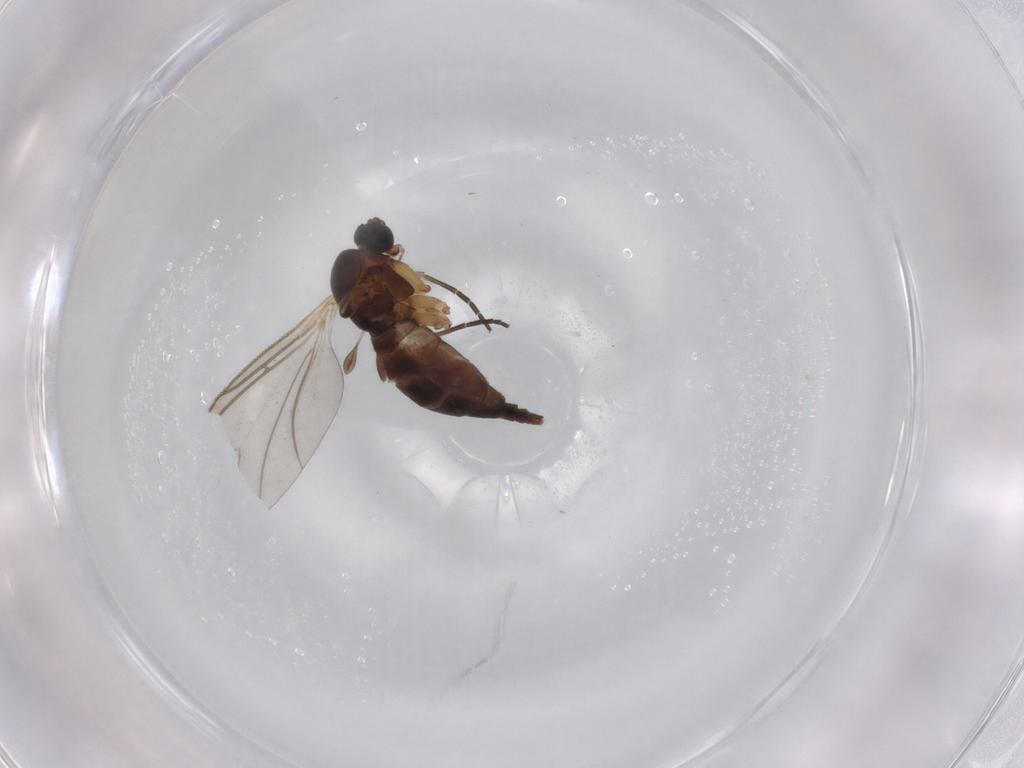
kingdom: Animalia
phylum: Arthropoda
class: Insecta
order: Diptera
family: Sciaridae
